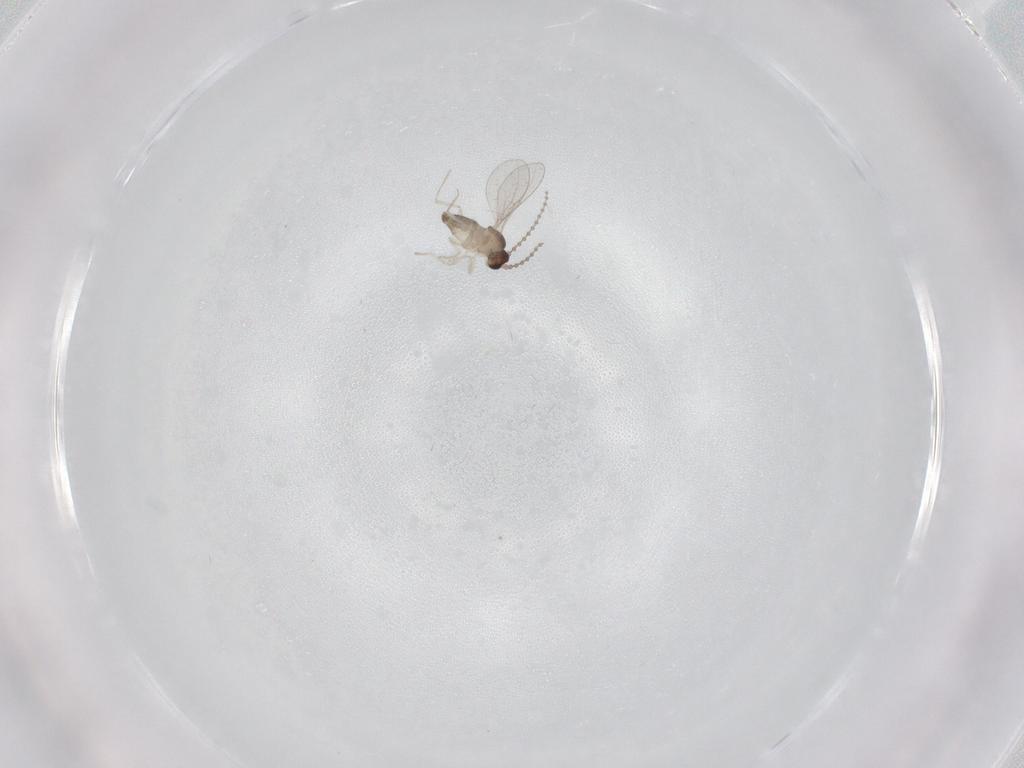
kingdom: Animalia
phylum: Arthropoda
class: Insecta
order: Diptera
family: Cecidomyiidae
